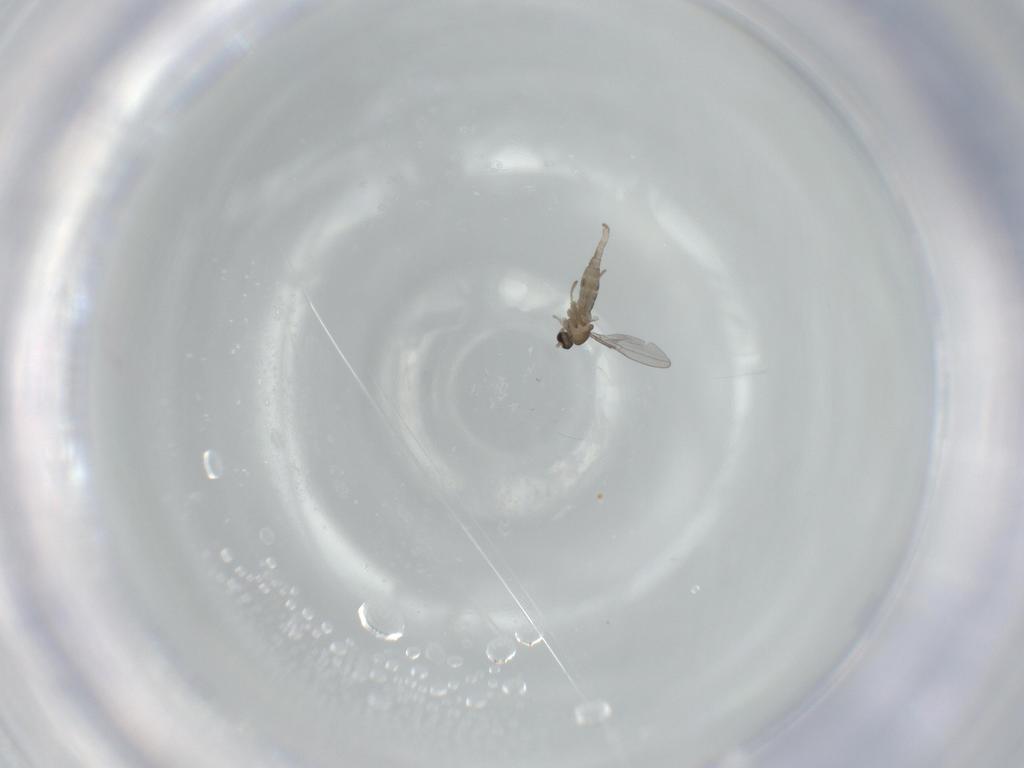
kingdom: Animalia
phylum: Arthropoda
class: Insecta
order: Diptera
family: Cecidomyiidae
